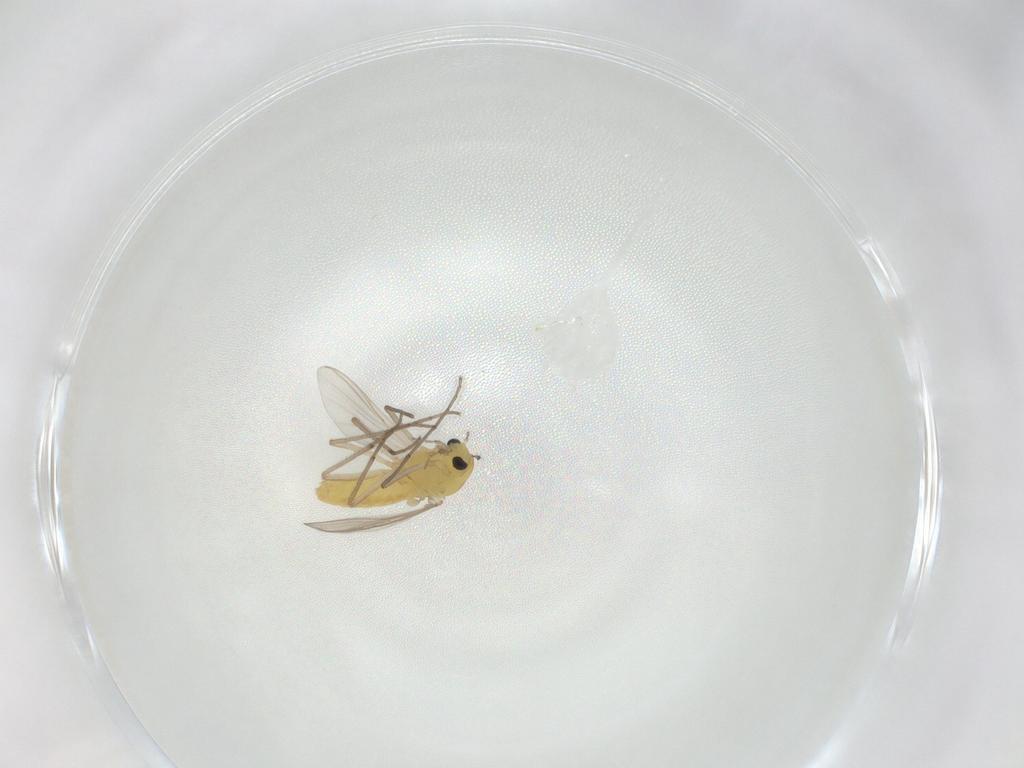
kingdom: Animalia
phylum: Arthropoda
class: Insecta
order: Diptera
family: Chironomidae
